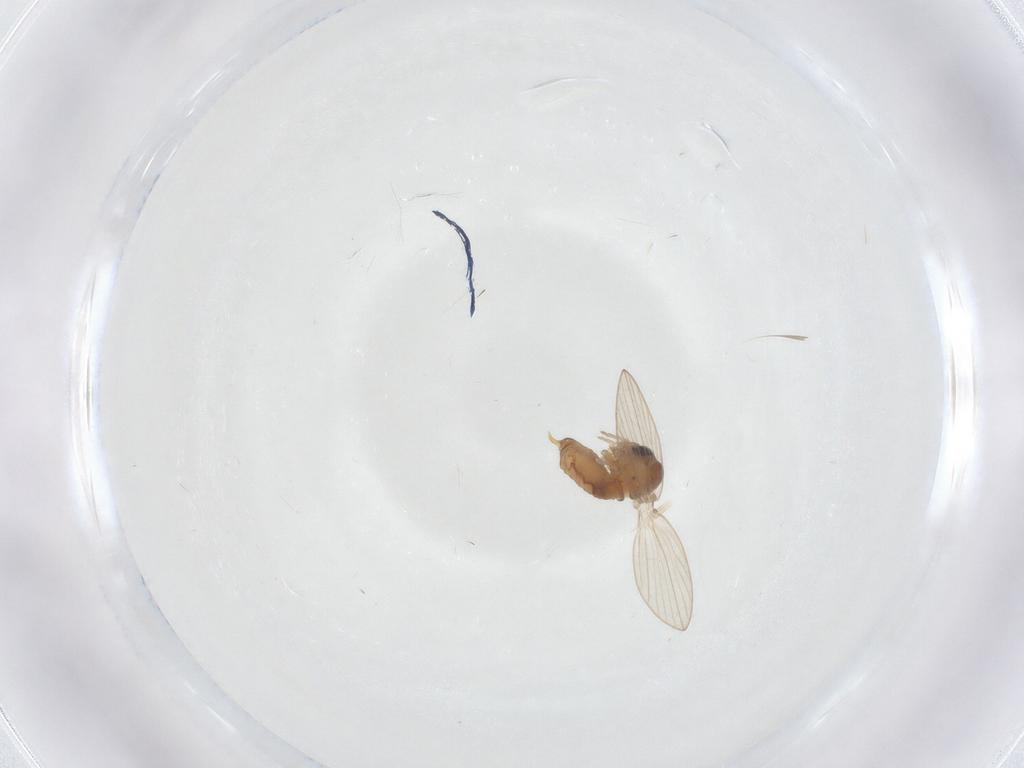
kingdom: Animalia
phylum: Arthropoda
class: Insecta
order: Diptera
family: Psychodidae
